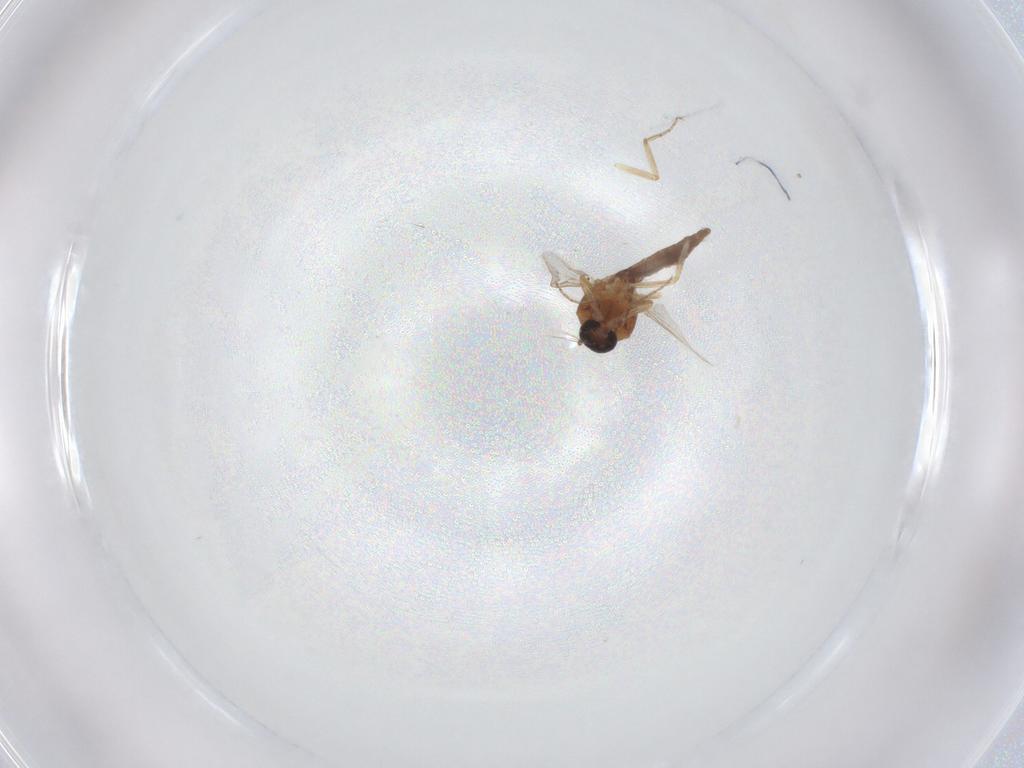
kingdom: Animalia
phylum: Arthropoda
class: Insecta
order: Diptera
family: Ceratopogonidae
